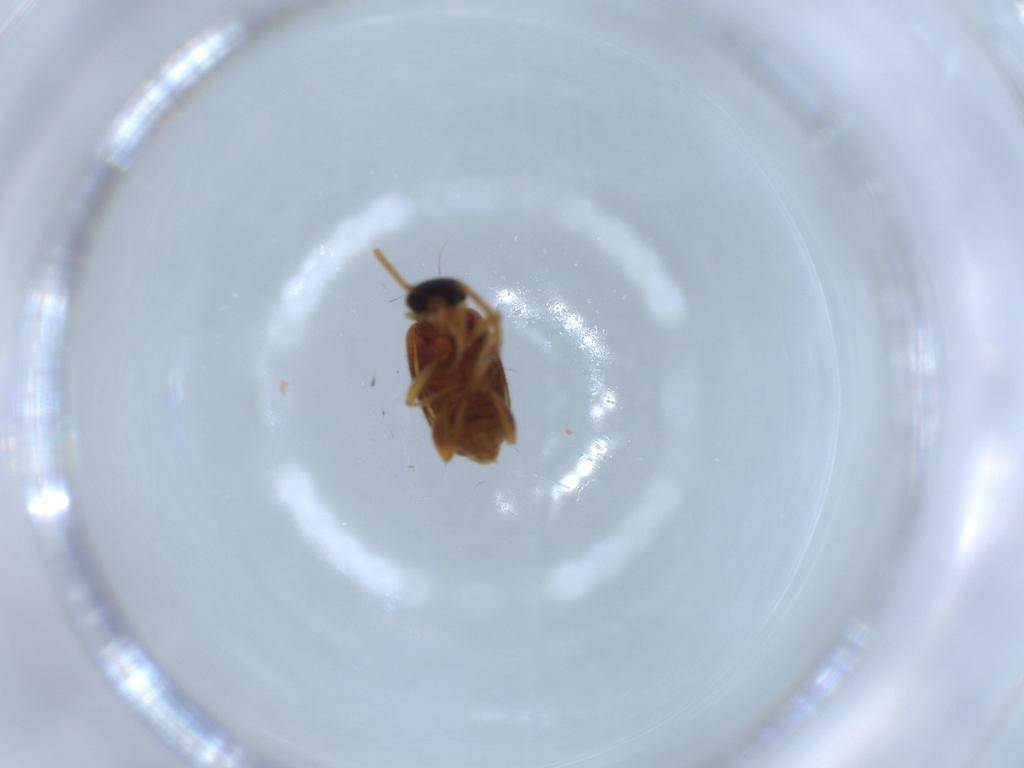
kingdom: Animalia
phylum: Arthropoda
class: Insecta
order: Coleoptera
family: Aderidae
